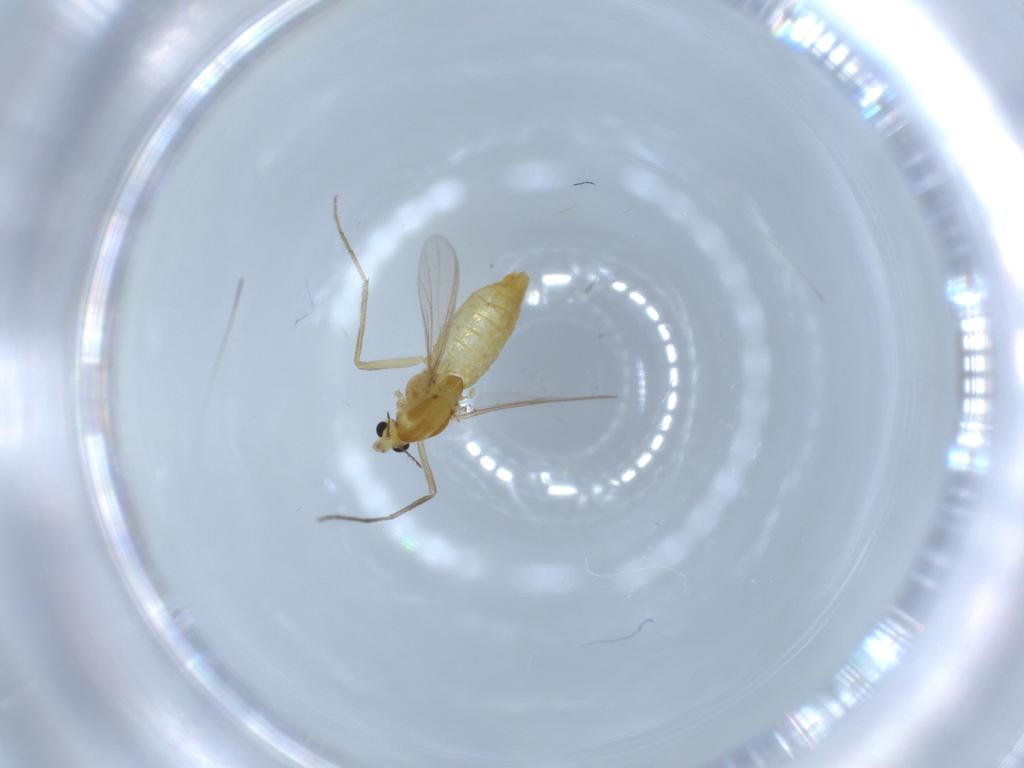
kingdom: Animalia
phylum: Arthropoda
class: Insecta
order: Diptera
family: Chironomidae
